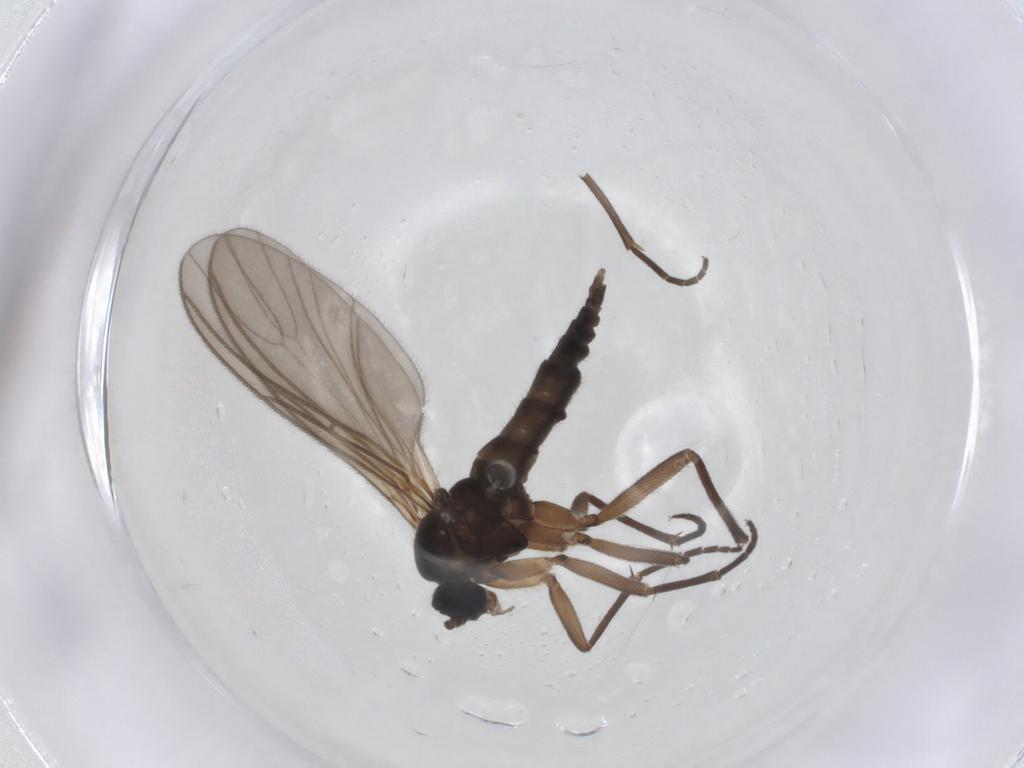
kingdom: Animalia
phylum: Arthropoda
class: Insecta
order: Diptera
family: Sciaridae
